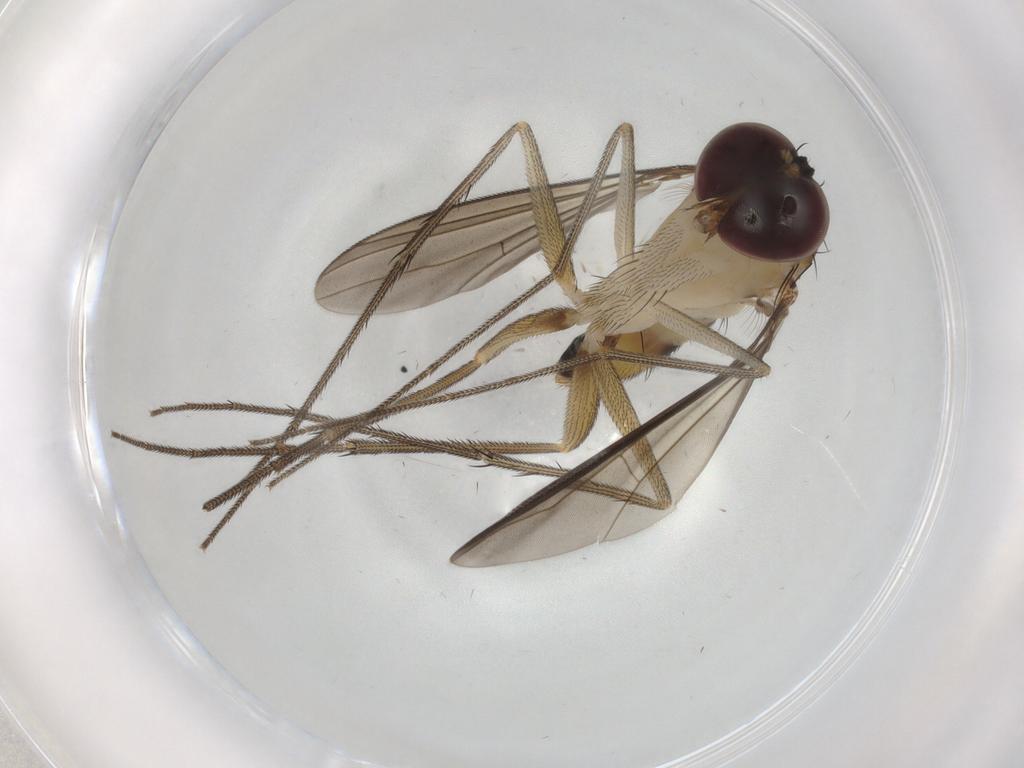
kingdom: Animalia
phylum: Arthropoda
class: Insecta
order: Diptera
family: Dolichopodidae
